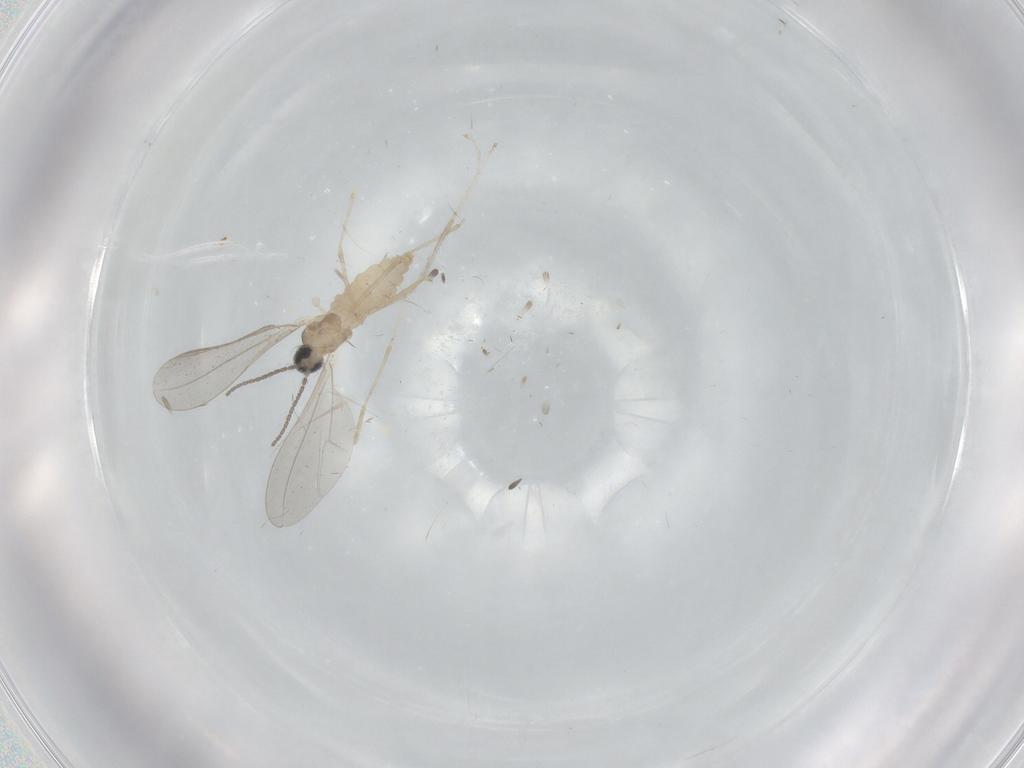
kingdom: Animalia
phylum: Arthropoda
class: Insecta
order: Diptera
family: Cecidomyiidae
